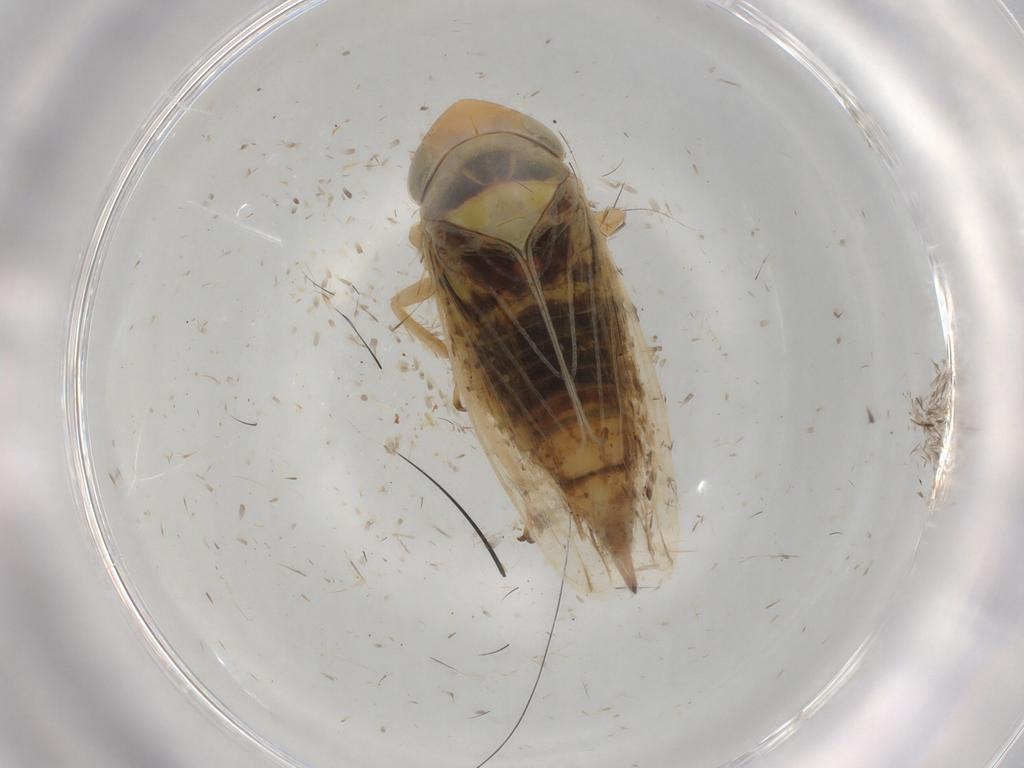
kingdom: Animalia
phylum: Arthropoda
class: Insecta
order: Hemiptera
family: Cicadellidae
